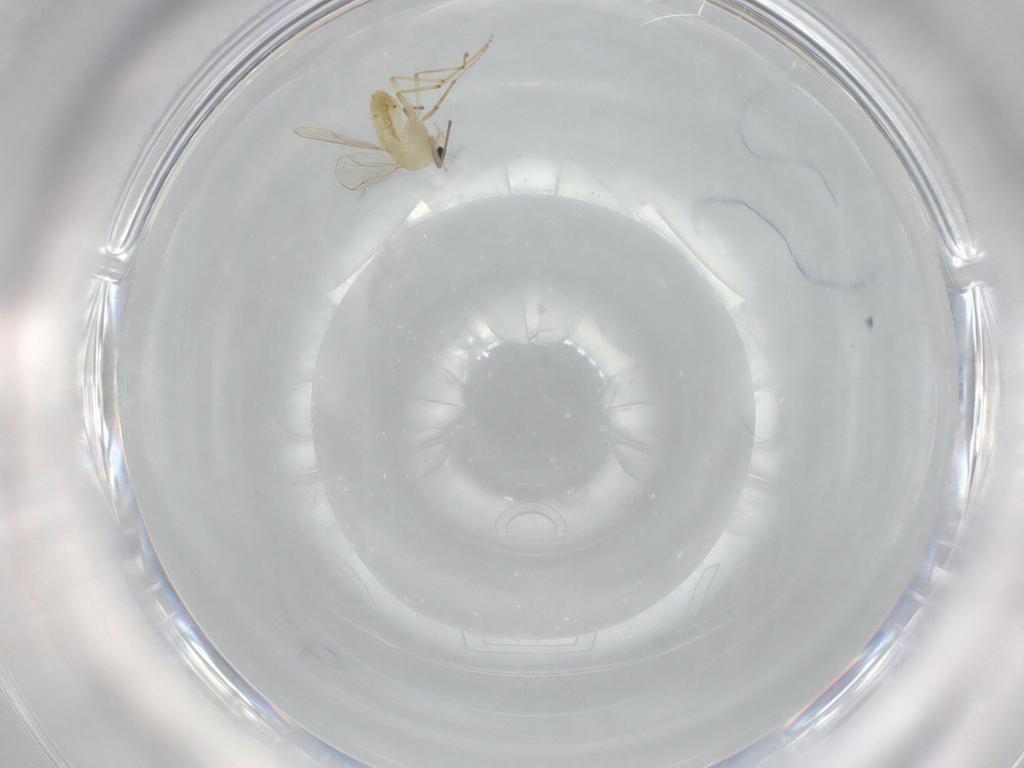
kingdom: Animalia
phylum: Arthropoda
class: Insecta
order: Diptera
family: Chironomidae
